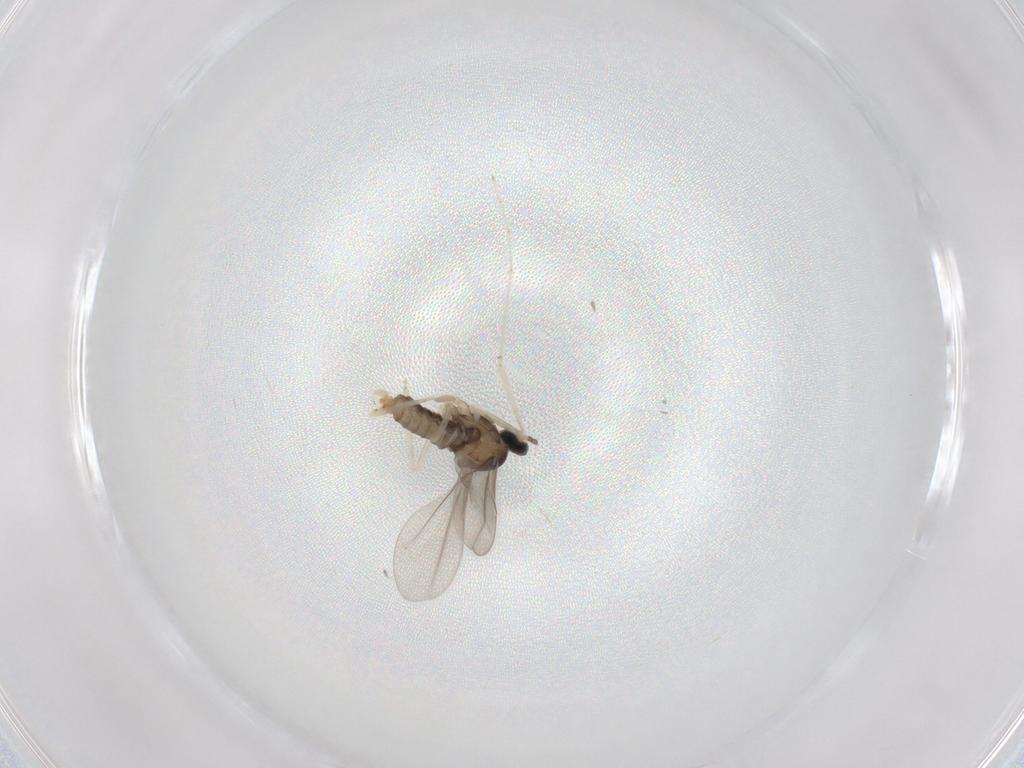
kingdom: Animalia
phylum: Arthropoda
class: Insecta
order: Diptera
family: Cecidomyiidae
